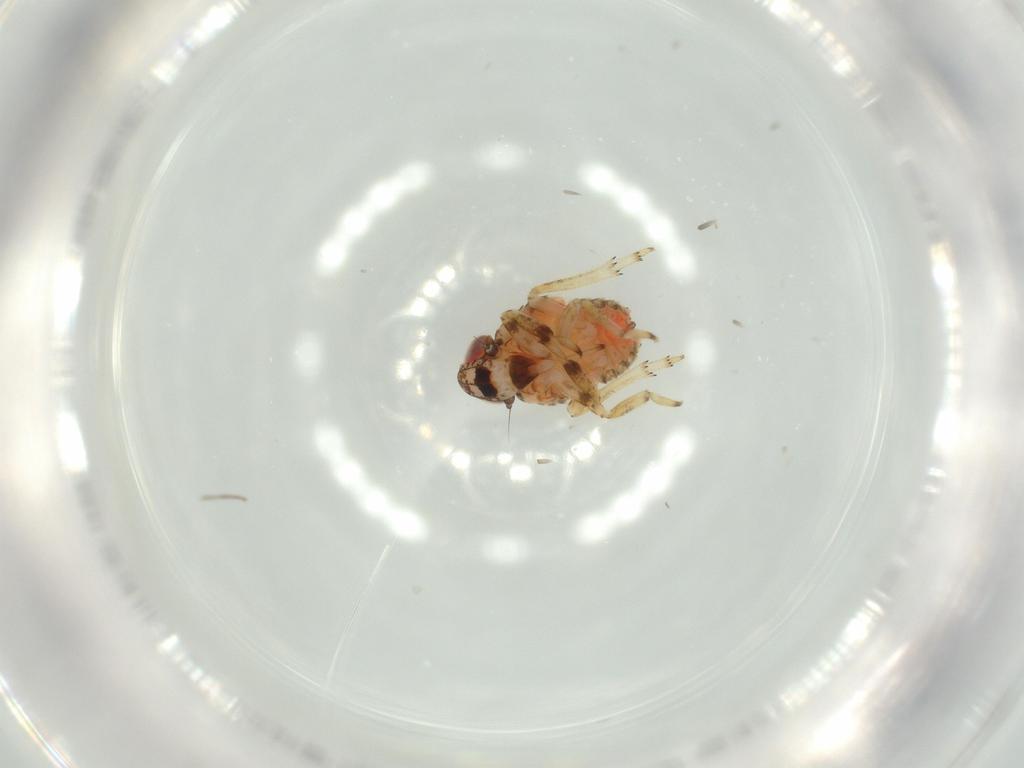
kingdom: Animalia
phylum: Arthropoda
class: Insecta
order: Hemiptera
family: Issidae
